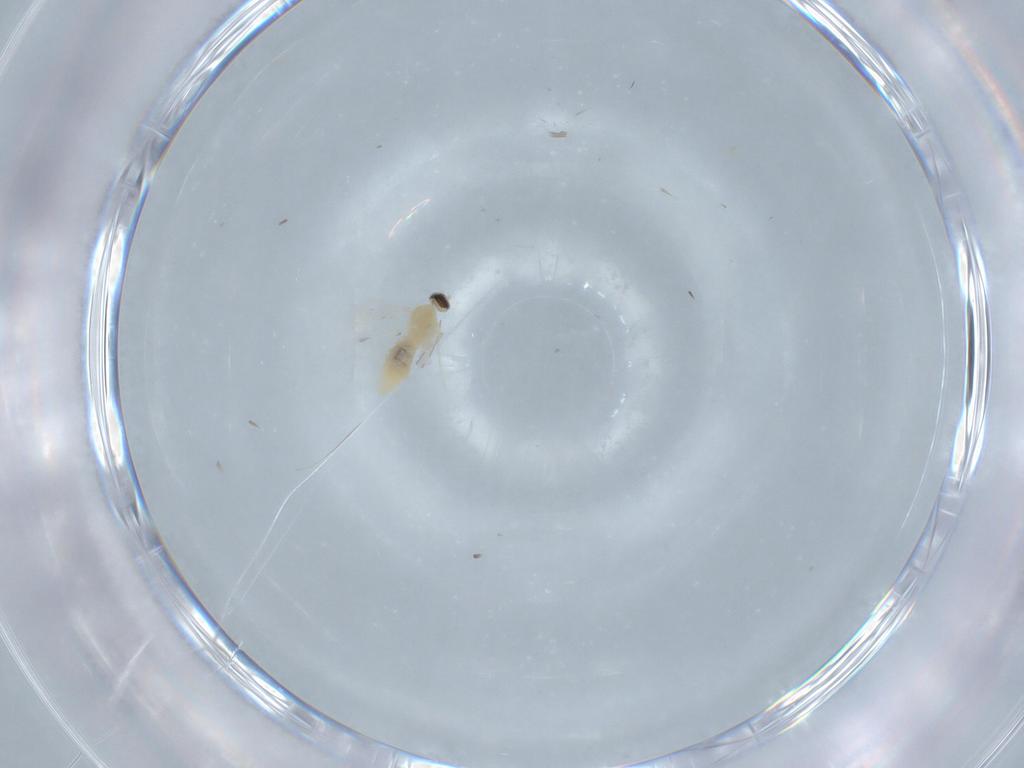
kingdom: Animalia
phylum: Arthropoda
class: Insecta
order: Diptera
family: Cecidomyiidae
